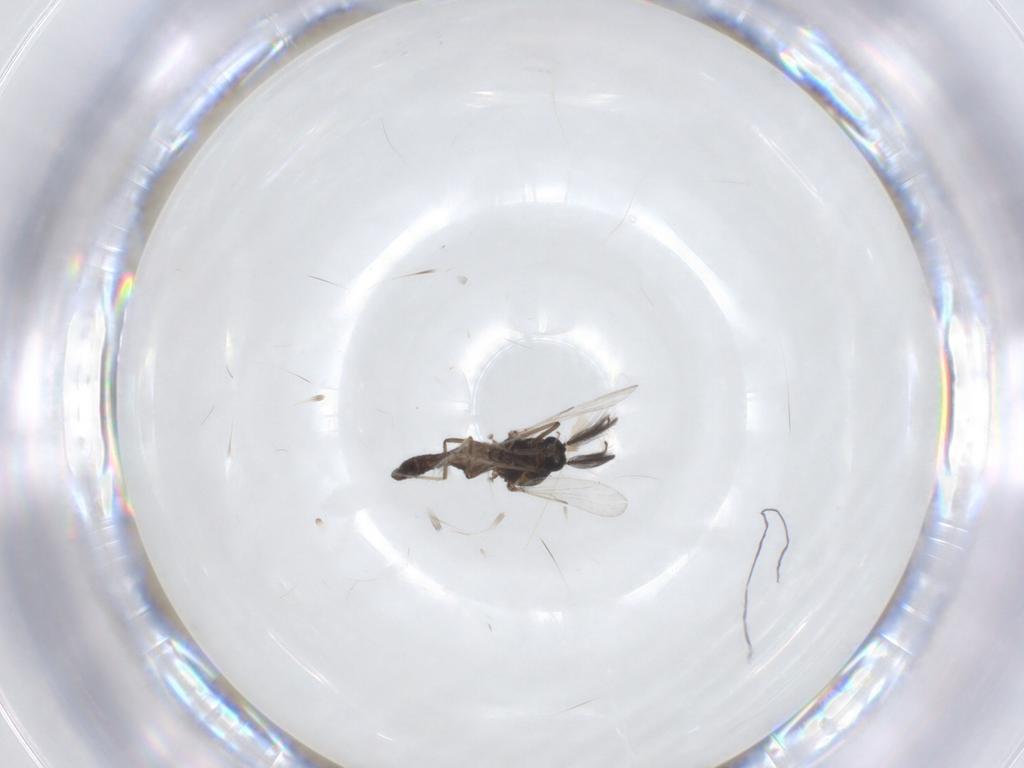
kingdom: Animalia
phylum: Arthropoda
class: Insecta
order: Diptera
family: Ceratopogonidae
